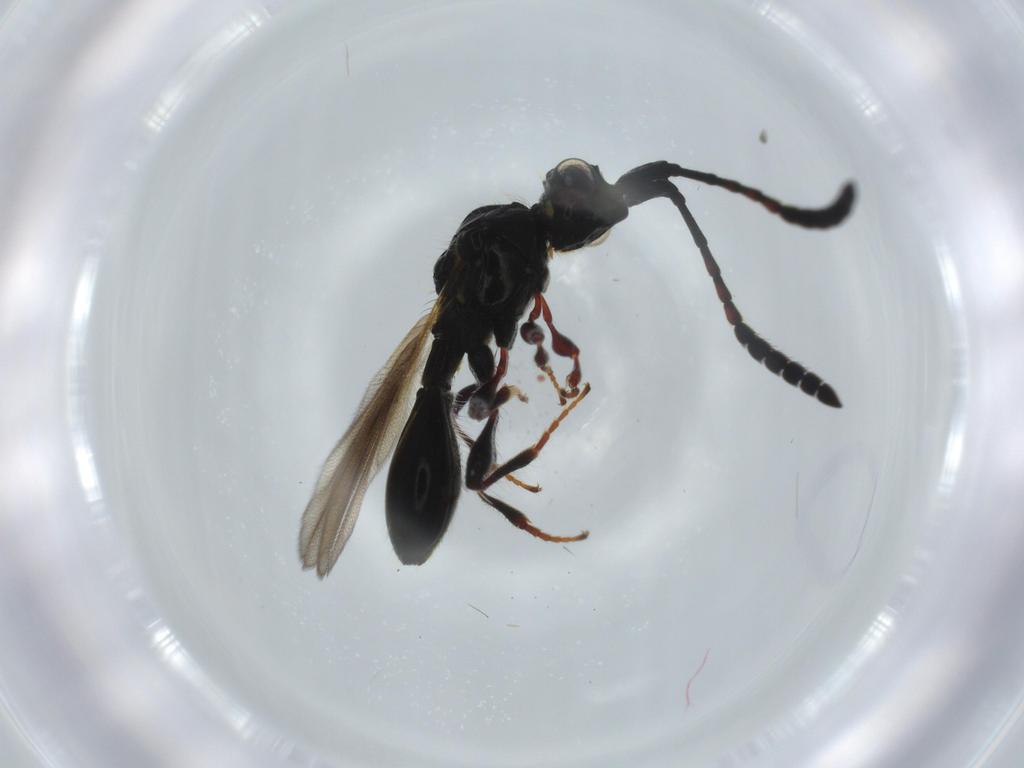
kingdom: Animalia
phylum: Arthropoda
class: Insecta
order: Hymenoptera
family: Diapriidae
